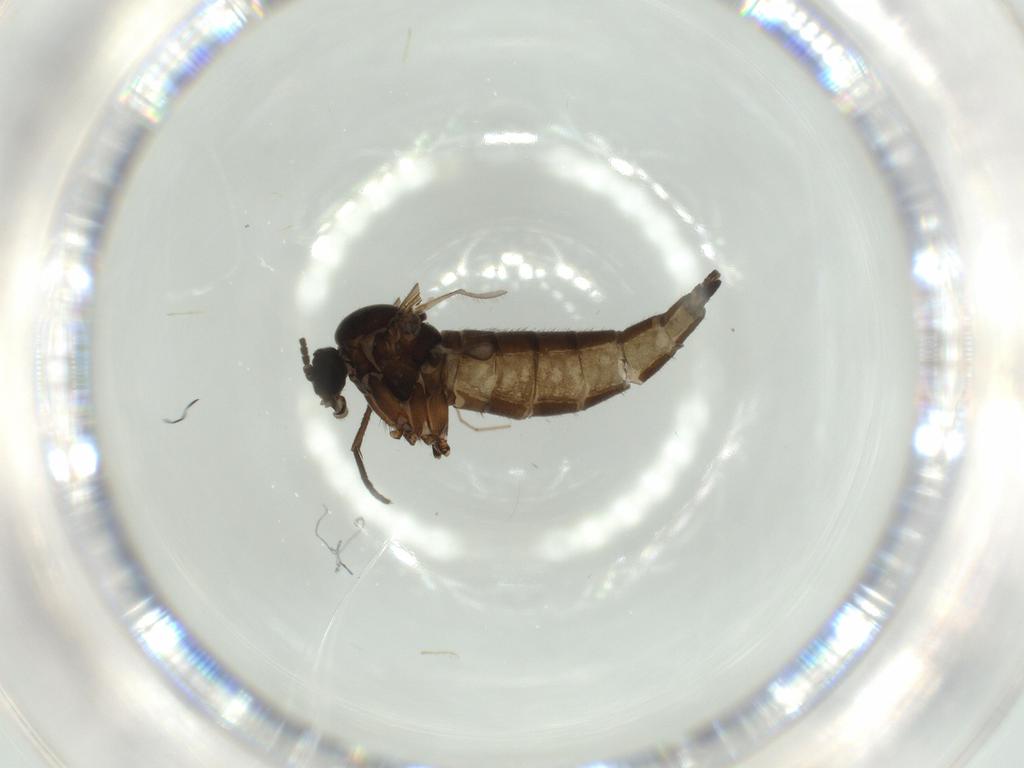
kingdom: Animalia
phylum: Arthropoda
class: Insecta
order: Diptera
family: Sciaridae
